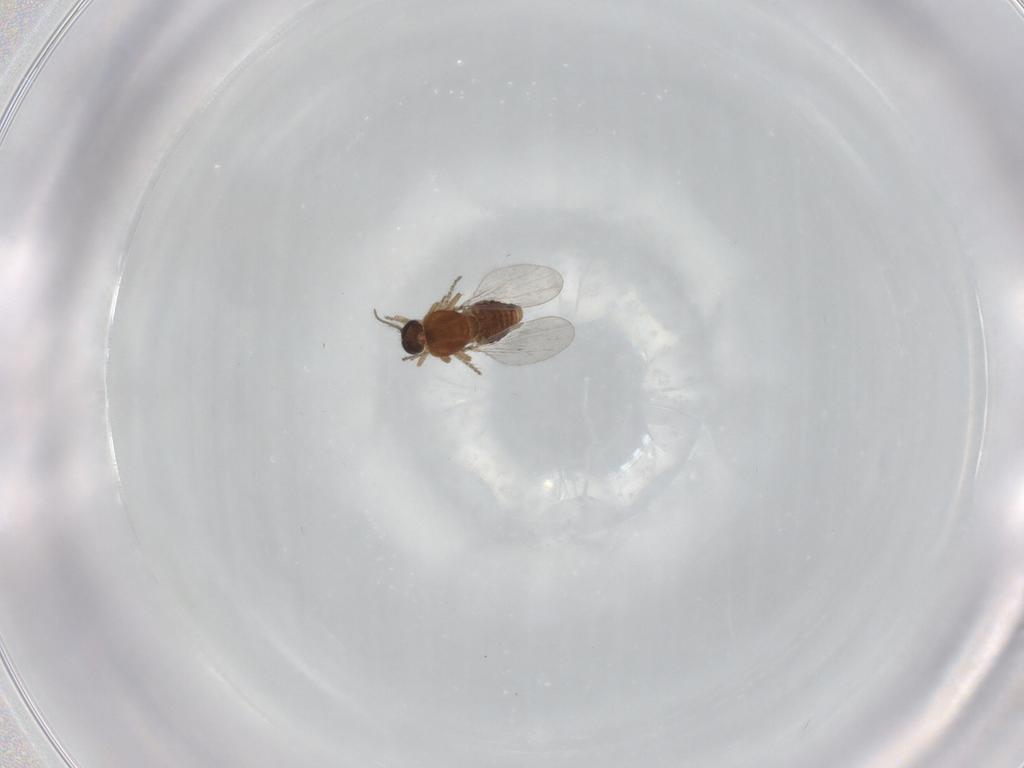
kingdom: Animalia
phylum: Arthropoda
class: Insecta
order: Diptera
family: Ceratopogonidae
